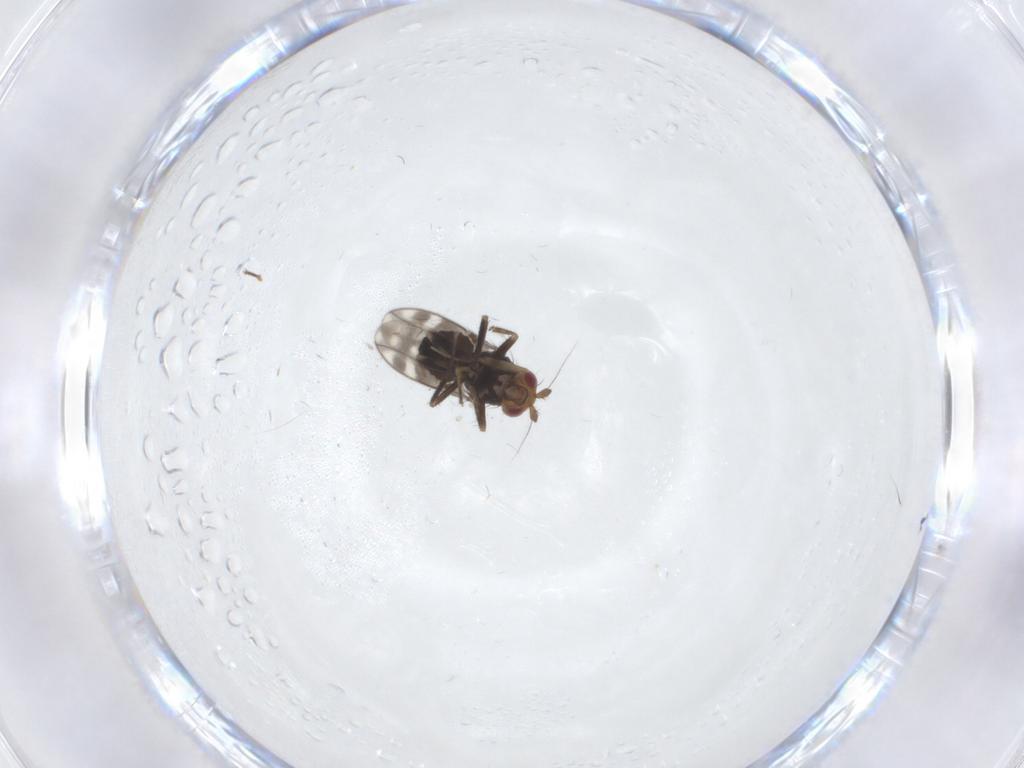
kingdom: Animalia
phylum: Arthropoda
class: Insecta
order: Diptera
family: Sphaeroceridae
